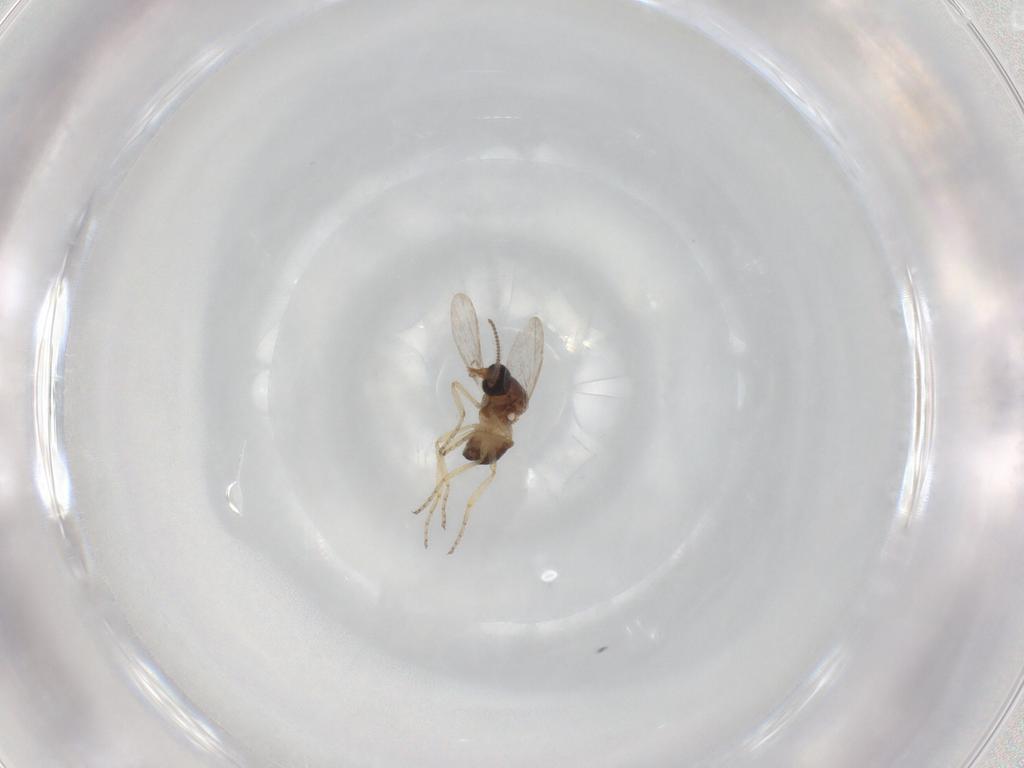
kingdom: Animalia
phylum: Arthropoda
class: Insecta
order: Diptera
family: Ceratopogonidae
